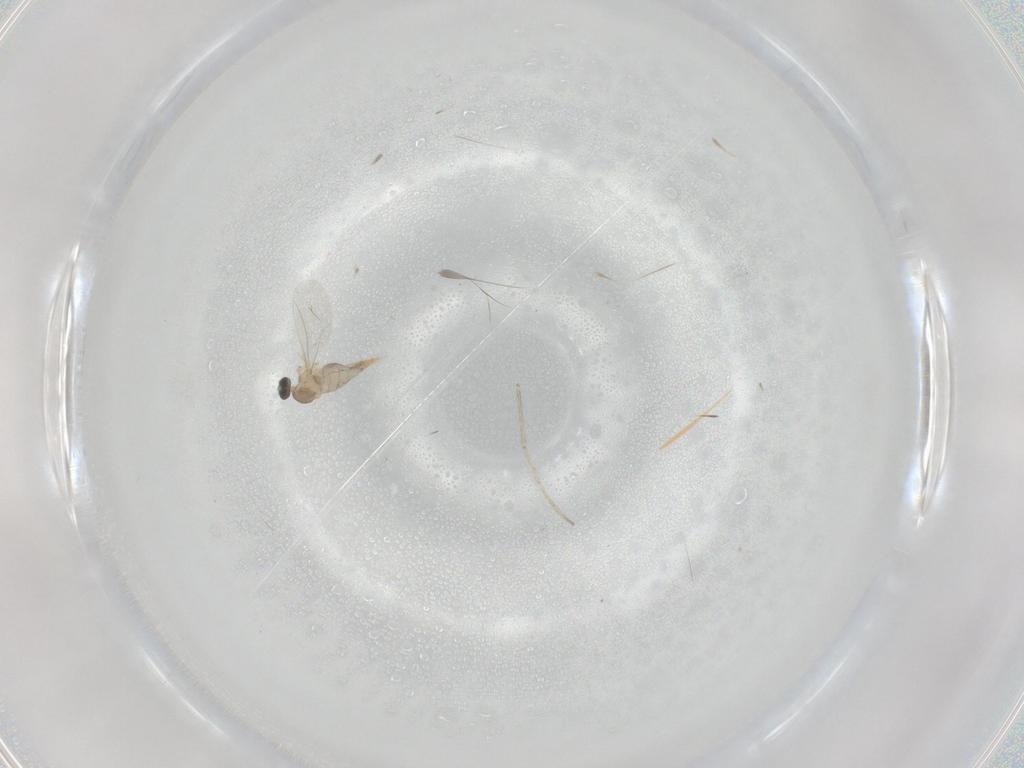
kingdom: Animalia
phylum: Arthropoda
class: Insecta
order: Diptera
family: Cecidomyiidae
